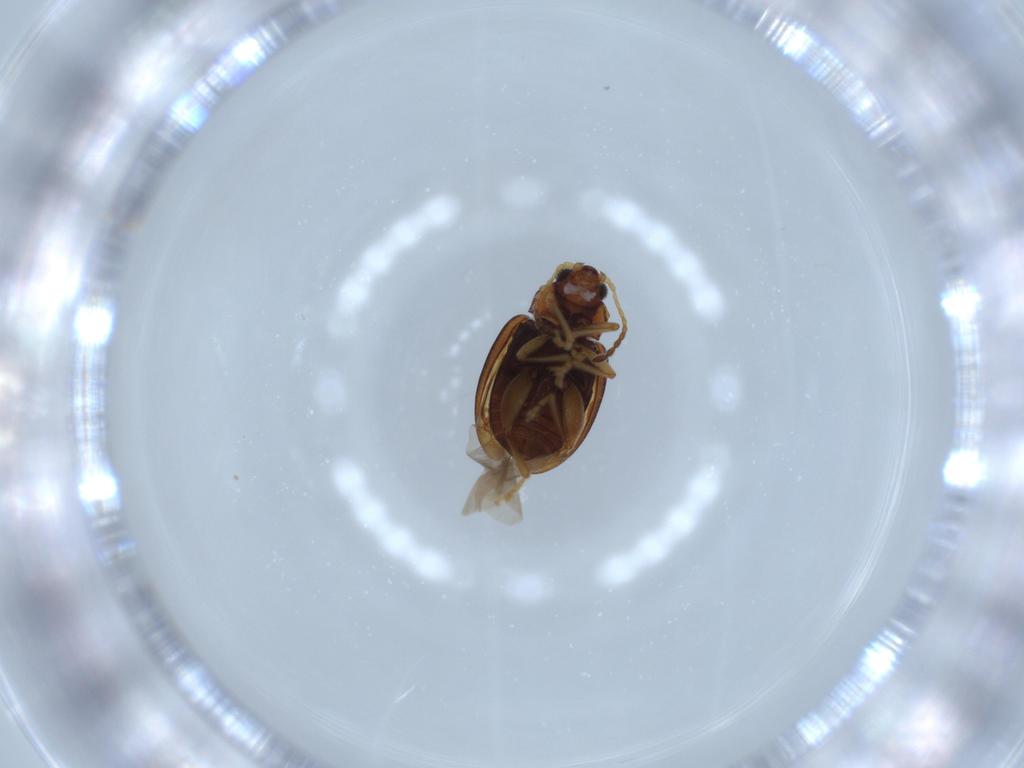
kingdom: Animalia
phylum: Arthropoda
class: Insecta
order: Coleoptera
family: Chrysomelidae
